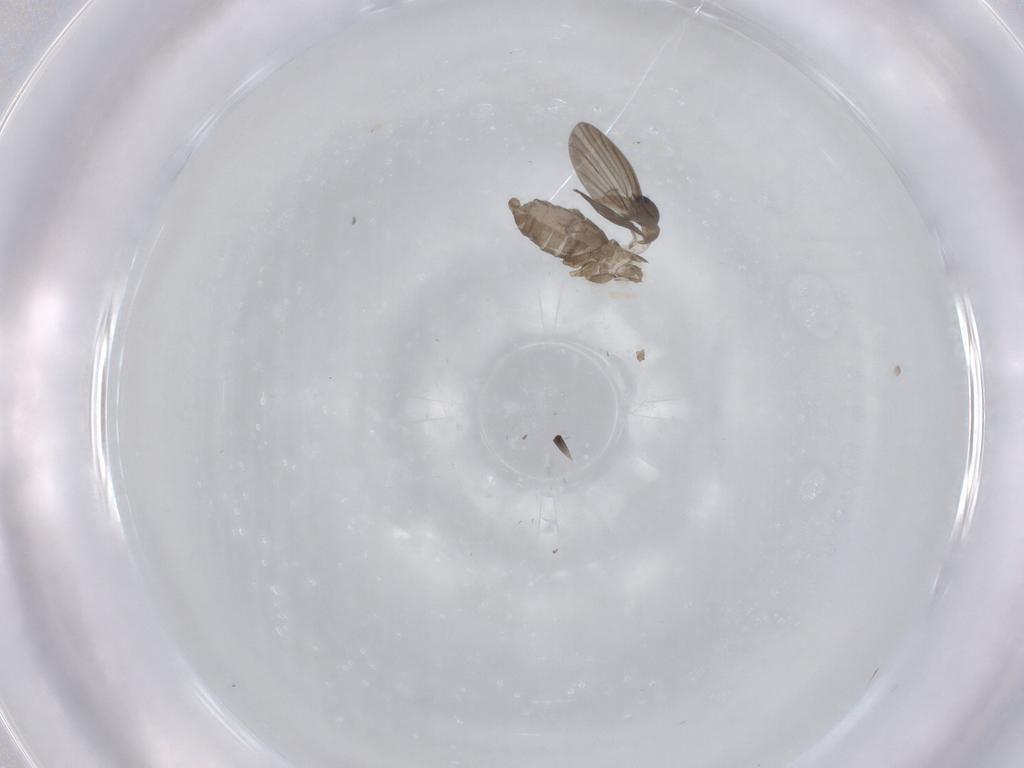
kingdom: Animalia
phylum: Arthropoda
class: Insecta
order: Diptera
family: Phoridae
